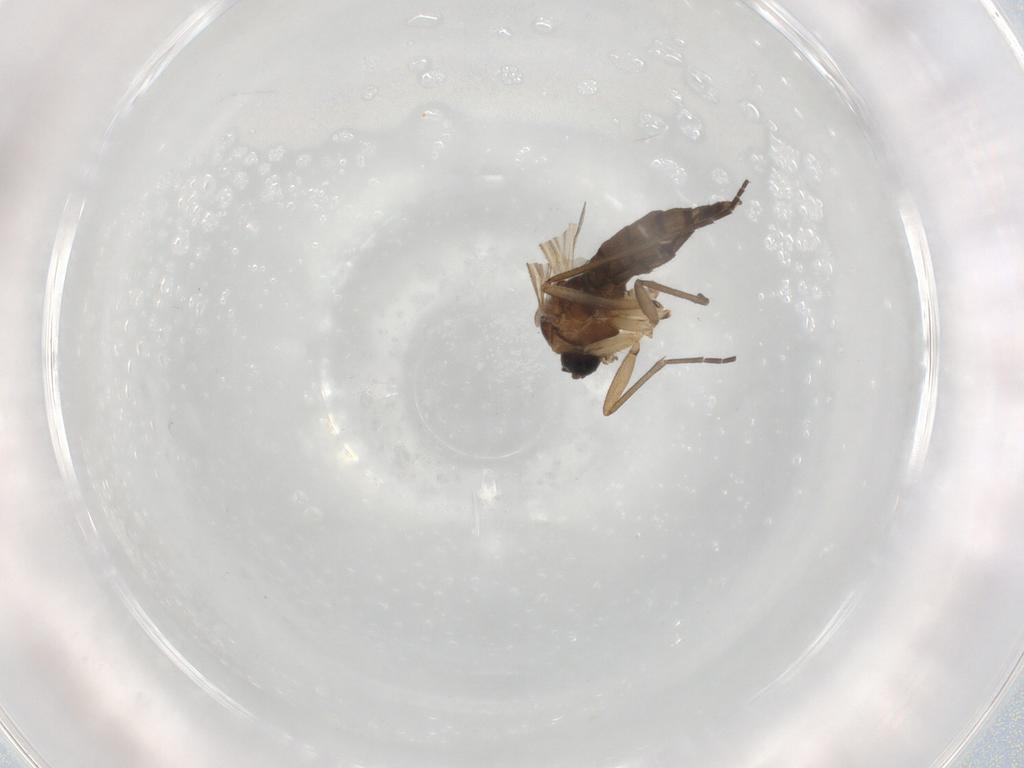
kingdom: Animalia
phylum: Arthropoda
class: Insecta
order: Diptera
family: Sciaridae
